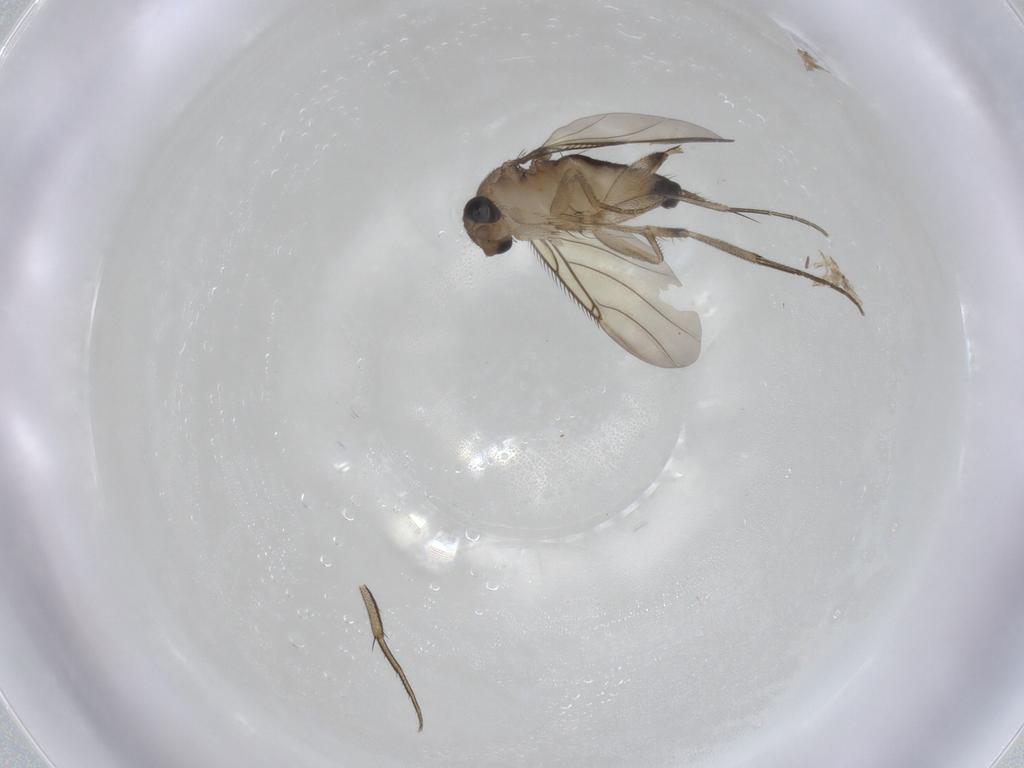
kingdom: Animalia
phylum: Arthropoda
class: Insecta
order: Diptera
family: Phoridae
